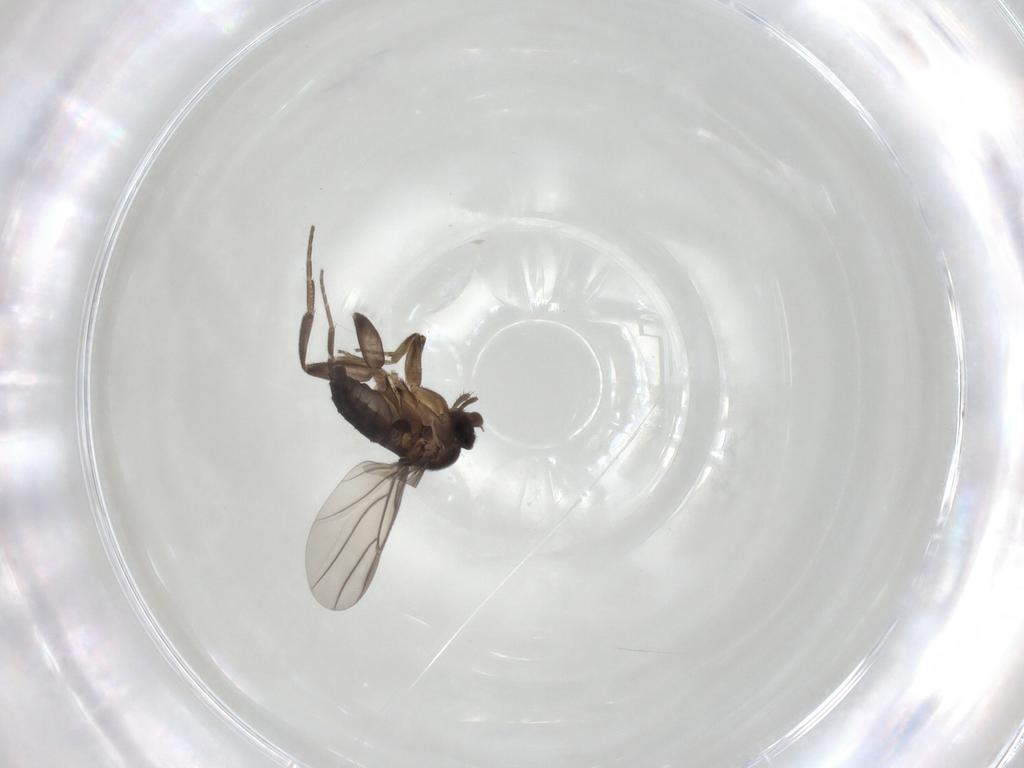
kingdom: Animalia
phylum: Arthropoda
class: Insecta
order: Diptera
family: Phoridae
